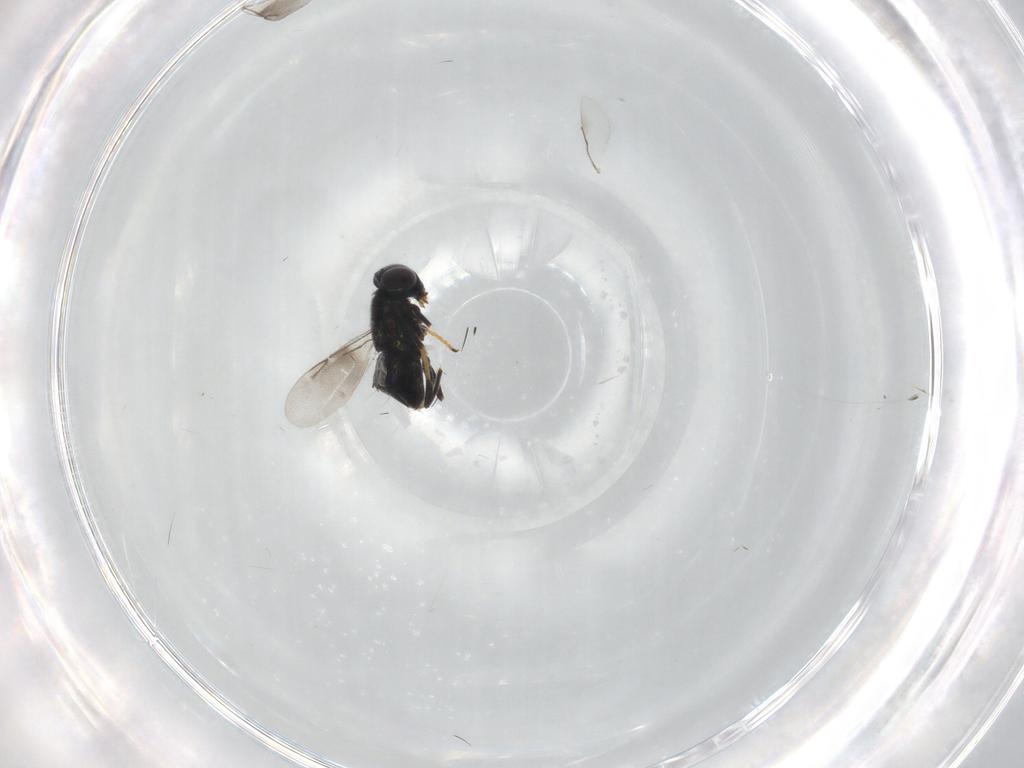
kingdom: Animalia
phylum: Arthropoda
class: Insecta
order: Hymenoptera
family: Encyrtidae
